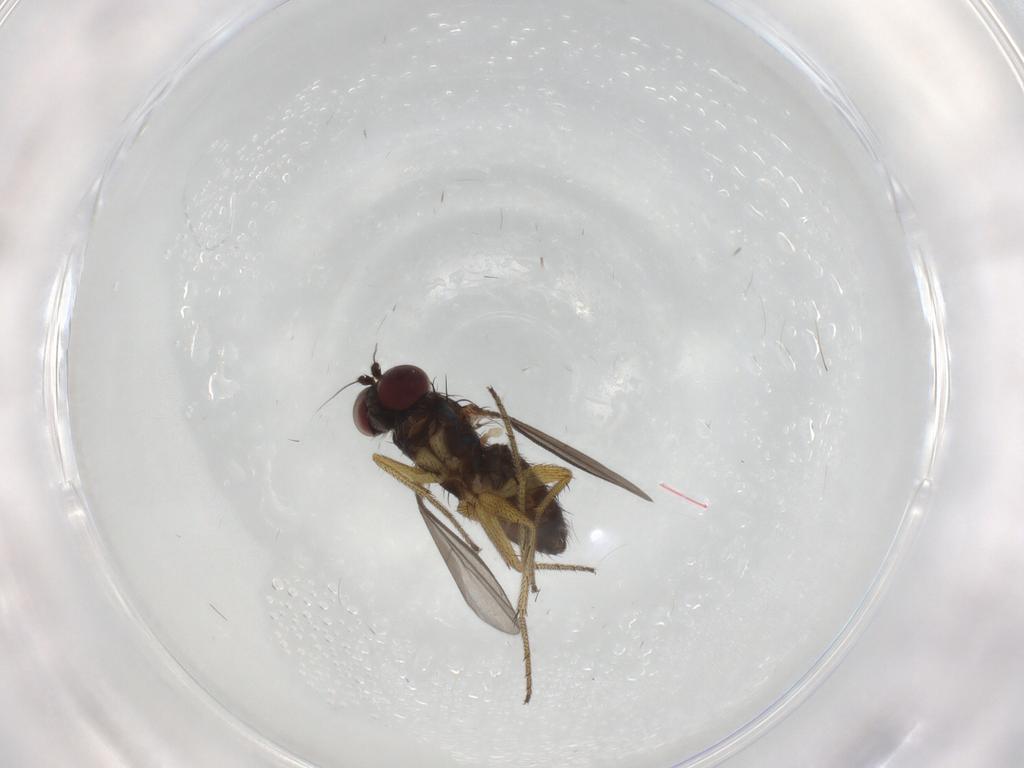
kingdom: Animalia
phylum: Arthropoda
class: Insecta
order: Diptera
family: Dolichopodidae
